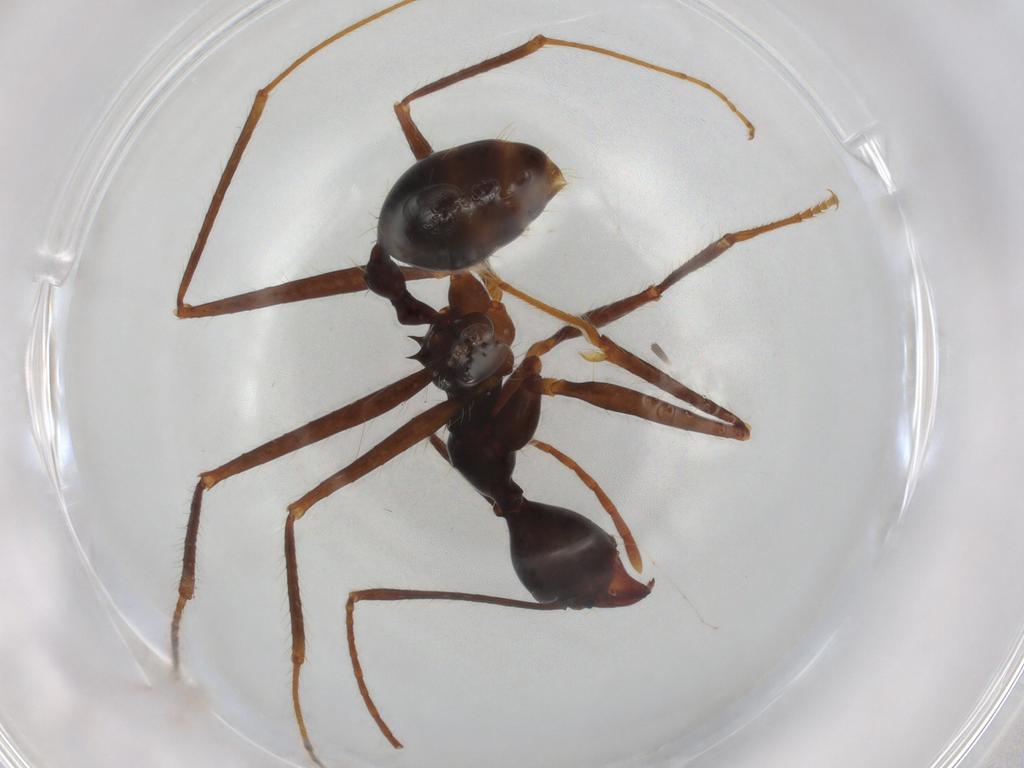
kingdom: Animalia
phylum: Arthropoda
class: Insecta
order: Hymenoptera
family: Formicidae
